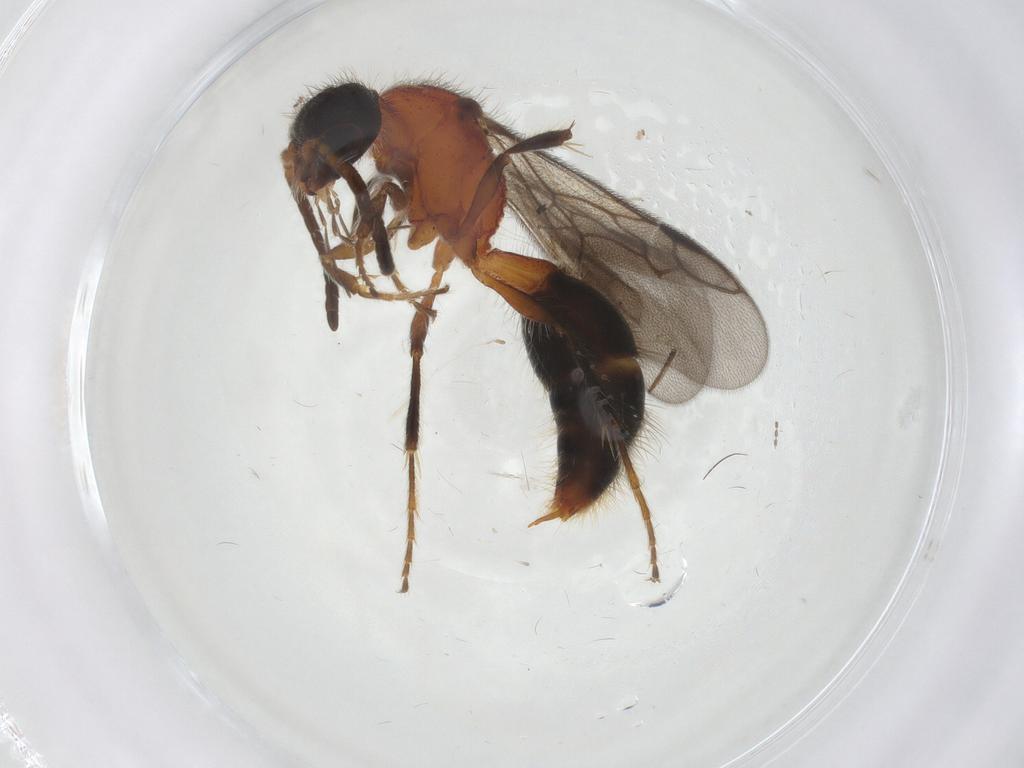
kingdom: Animalia
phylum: Arthropoda
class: Insecta
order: Hymenoptera
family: Mutillidae
